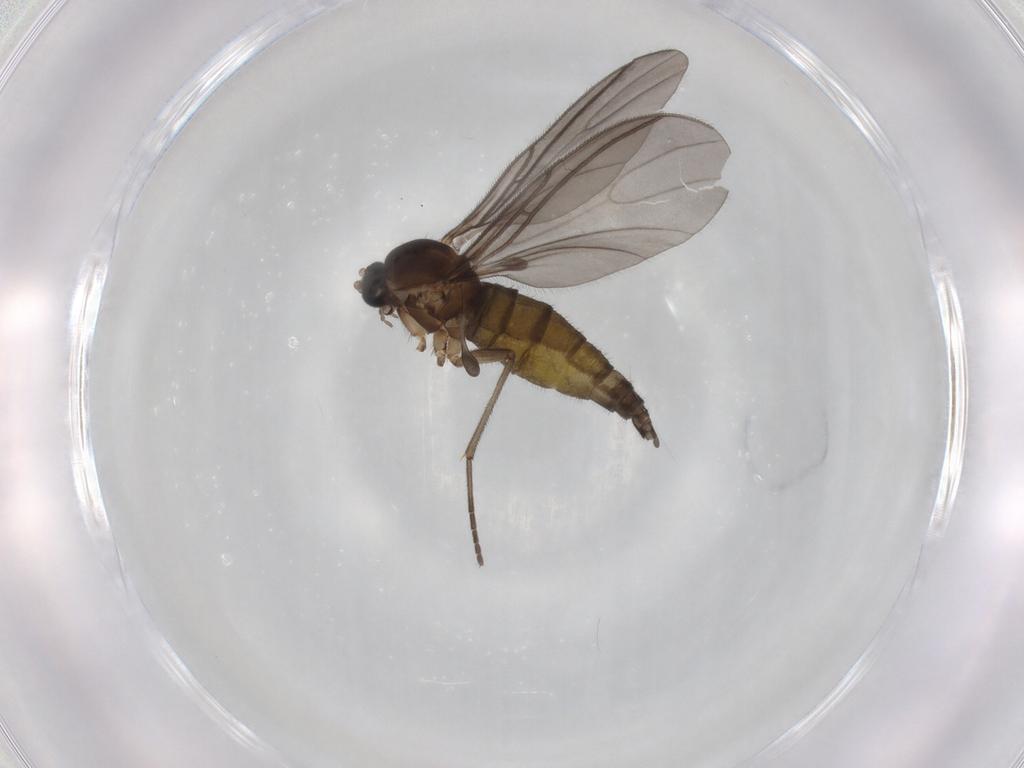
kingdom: Animalia
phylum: Arthropoda
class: Insecta
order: Diptera
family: Sciaridae
